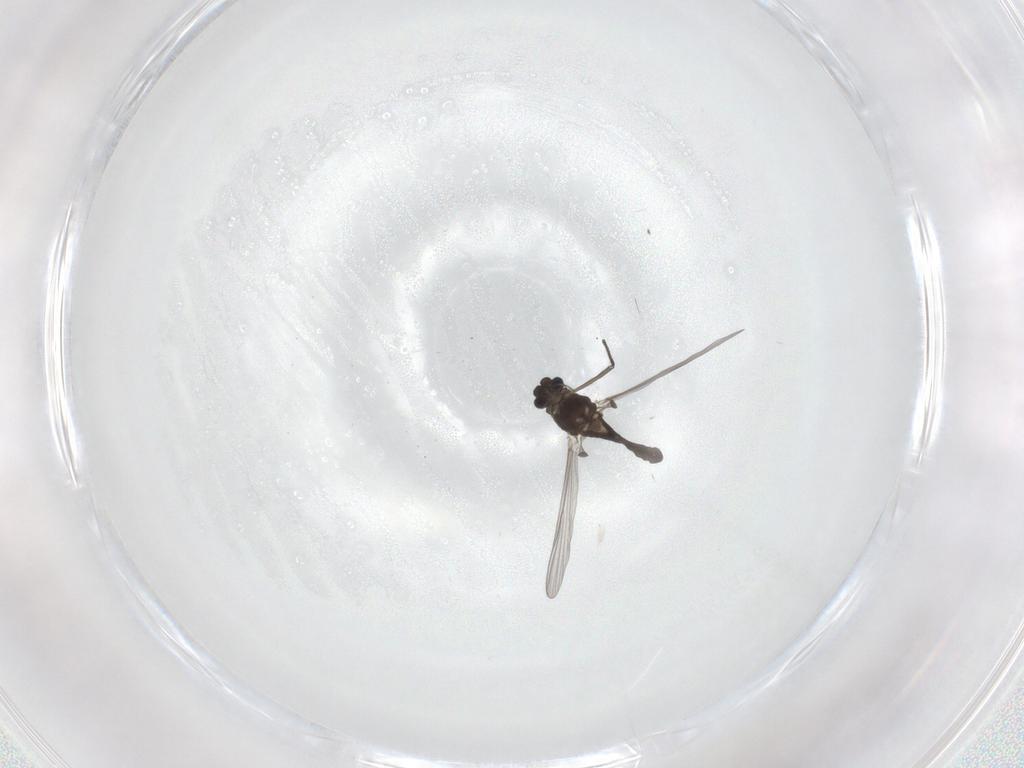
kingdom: Animalia
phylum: Arthropoda
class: Insecta
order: Diptera
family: Chironomidae
